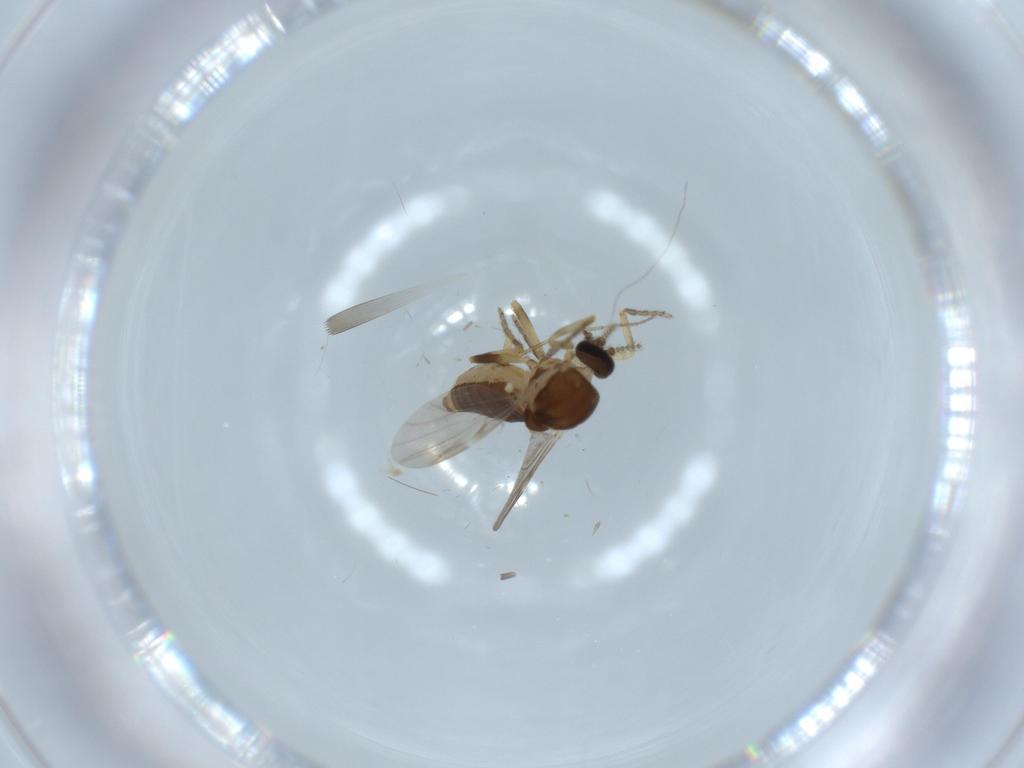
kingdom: Animalia
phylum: Arthropoda
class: Insecta
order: Diptera
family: Ceratopogonidae
